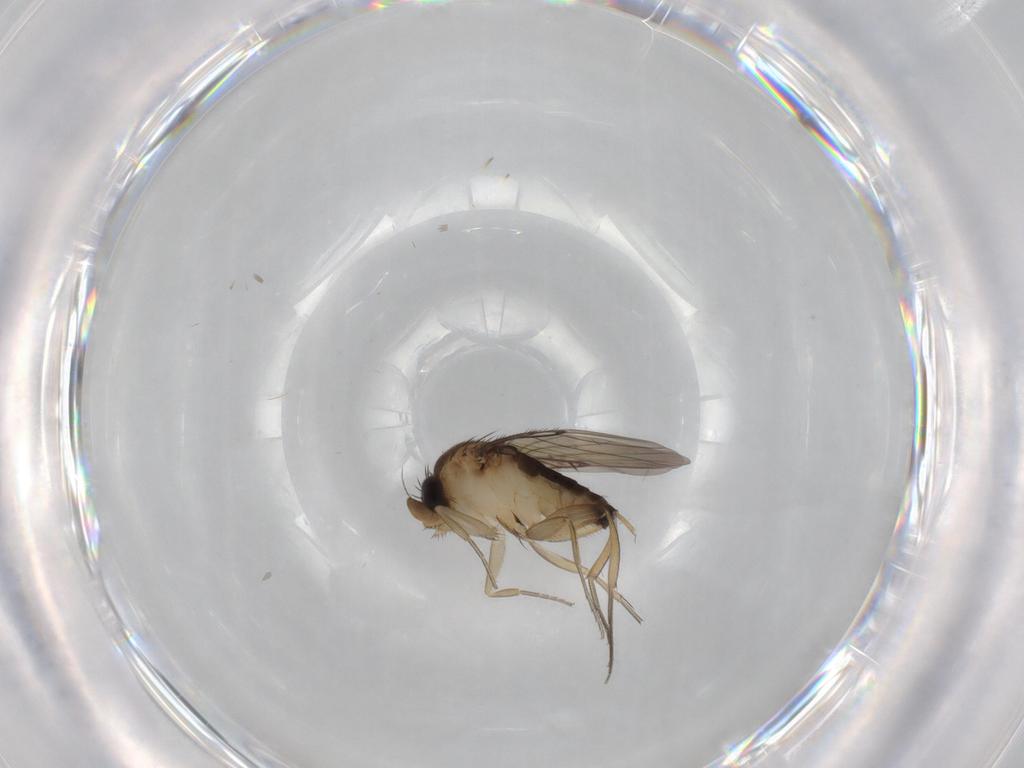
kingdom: Animalia
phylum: Arthropoda
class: Insecta
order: Diptera
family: Phoridae
